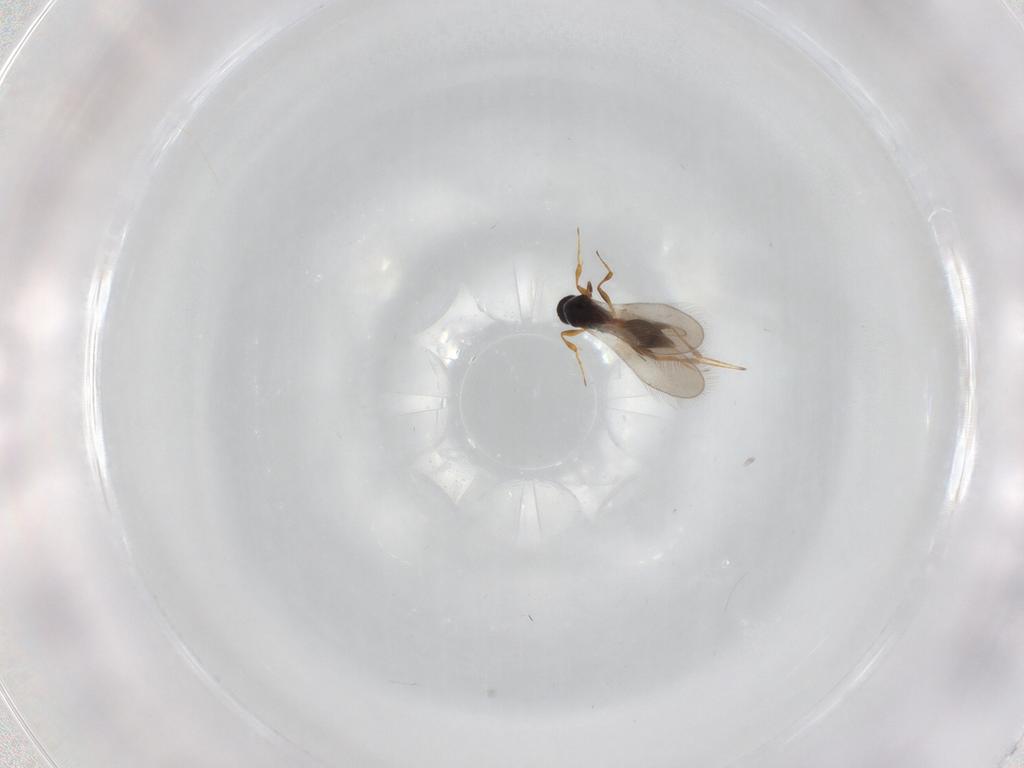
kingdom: Animalia
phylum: Arthropoda
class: Insecta
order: Hymenoptera
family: Platygastridae
